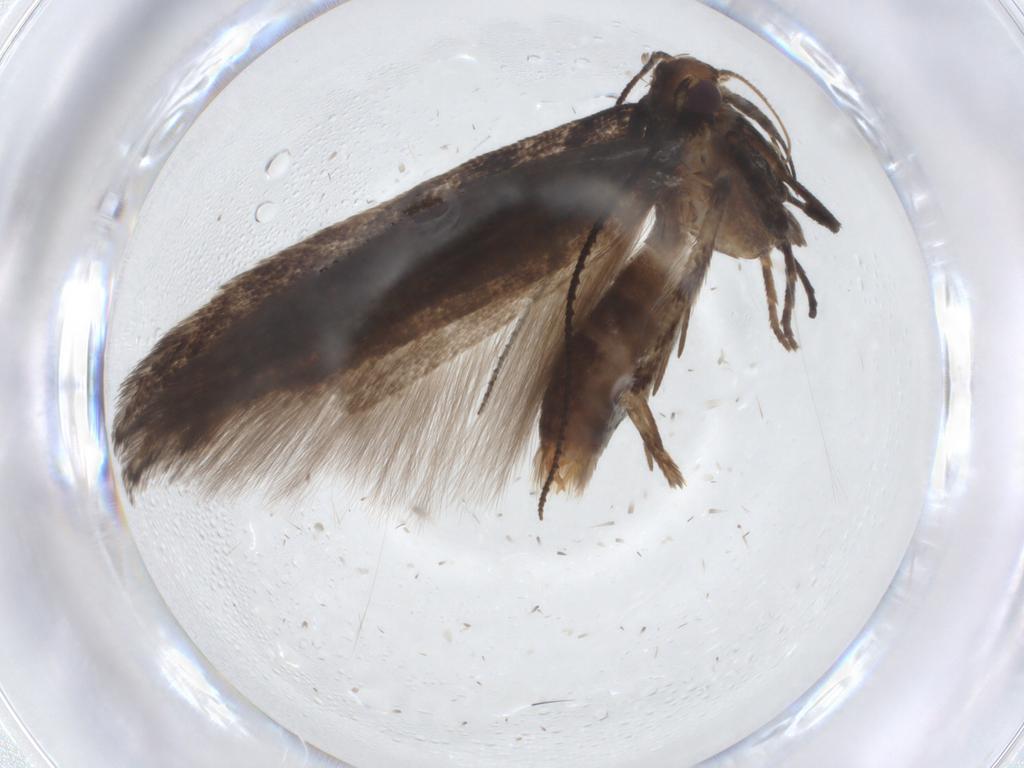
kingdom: Animalia
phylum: Arthropoda
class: Insecta
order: Lepidoptera
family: Gelechiidae
